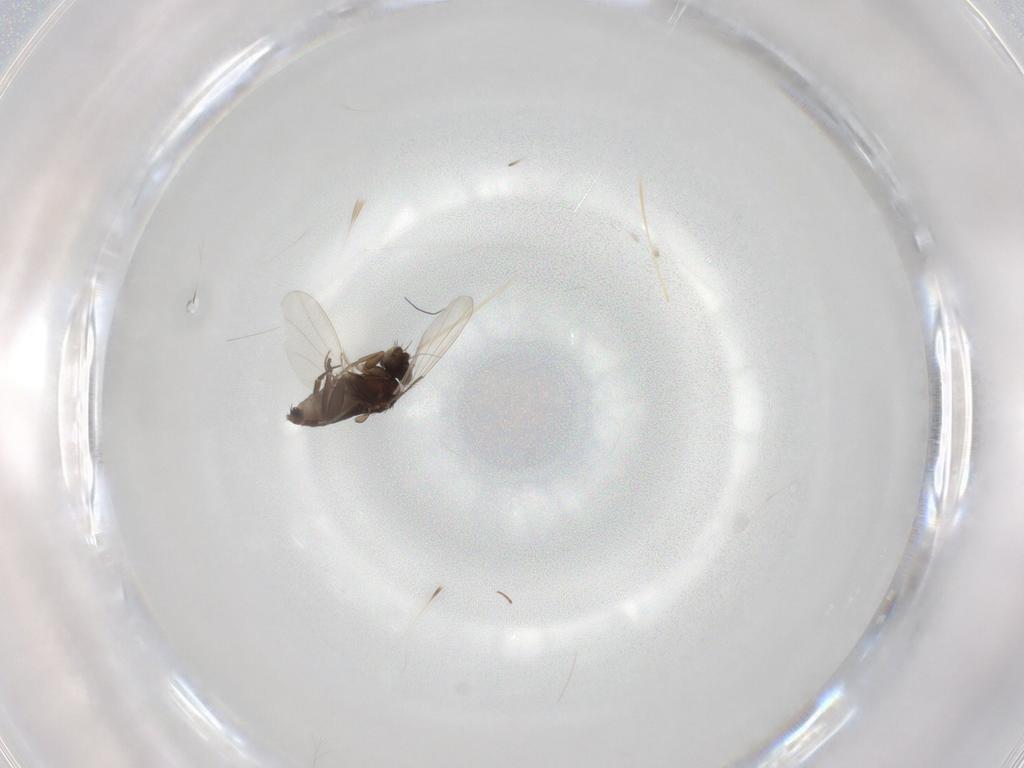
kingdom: Animalia
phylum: Arthropoda
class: Insecta
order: Diptera
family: Phoridae
